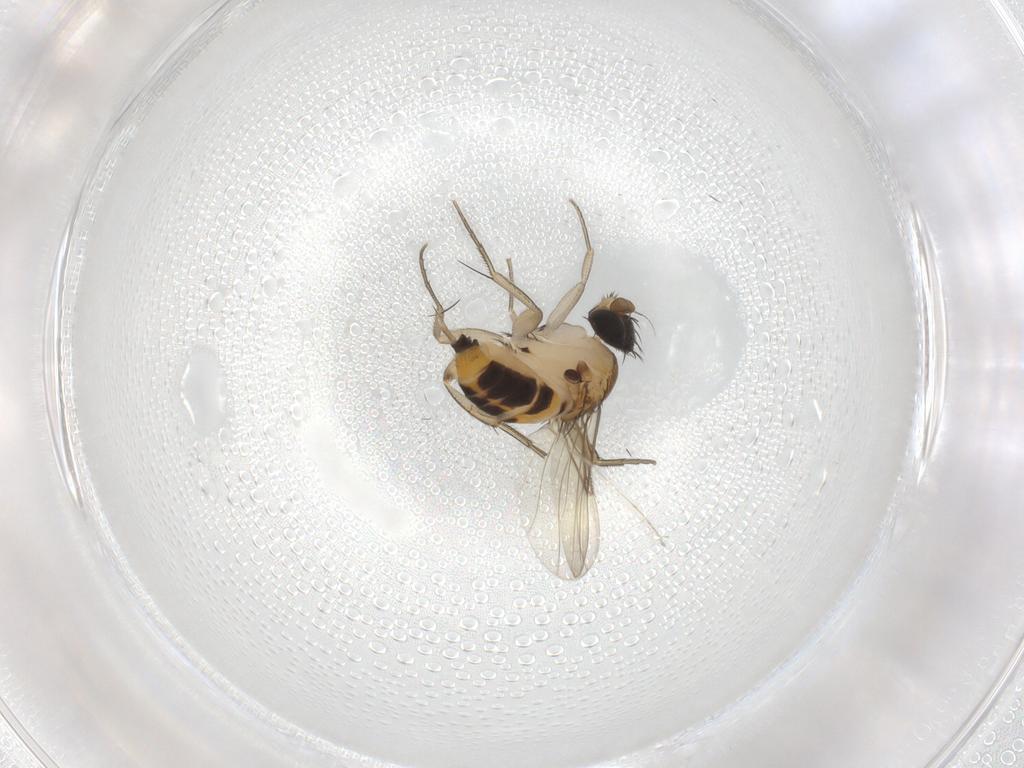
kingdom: Animalia
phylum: Arthropoda
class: Insecta
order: Diptera
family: Phoridae
